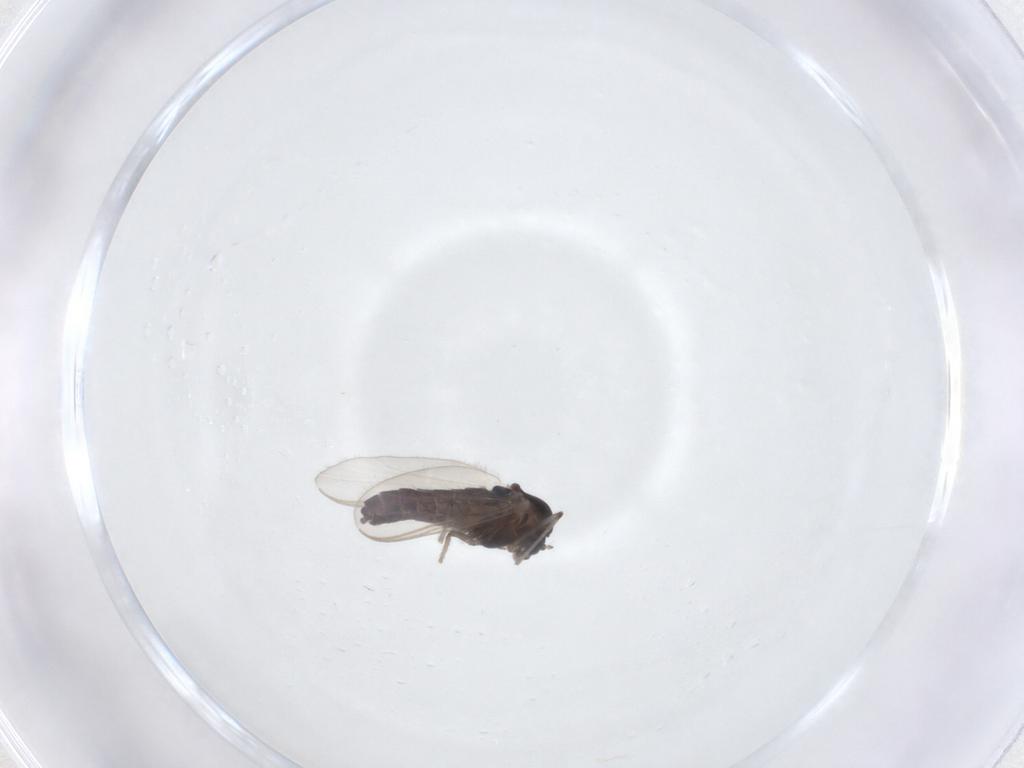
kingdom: Animalia
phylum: Arthropoda
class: Insecta
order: Diptera
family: Chironomidae
